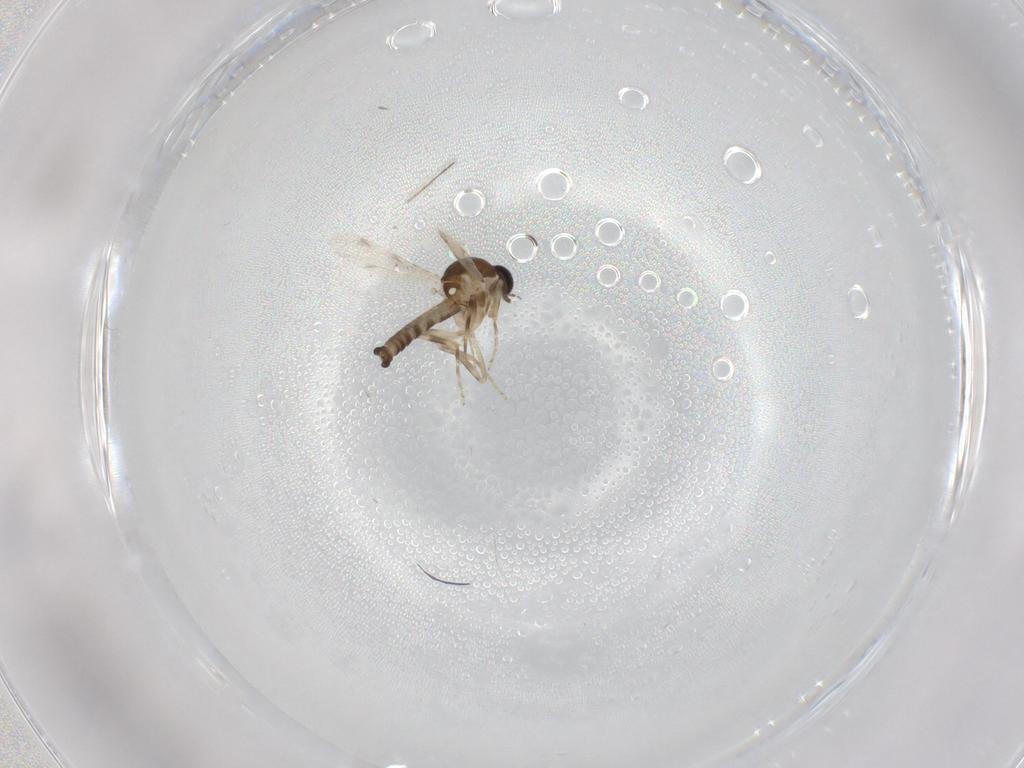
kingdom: Animalia
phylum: Arthropoda
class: Insecta
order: Diptera
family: Ceratopogonidae
